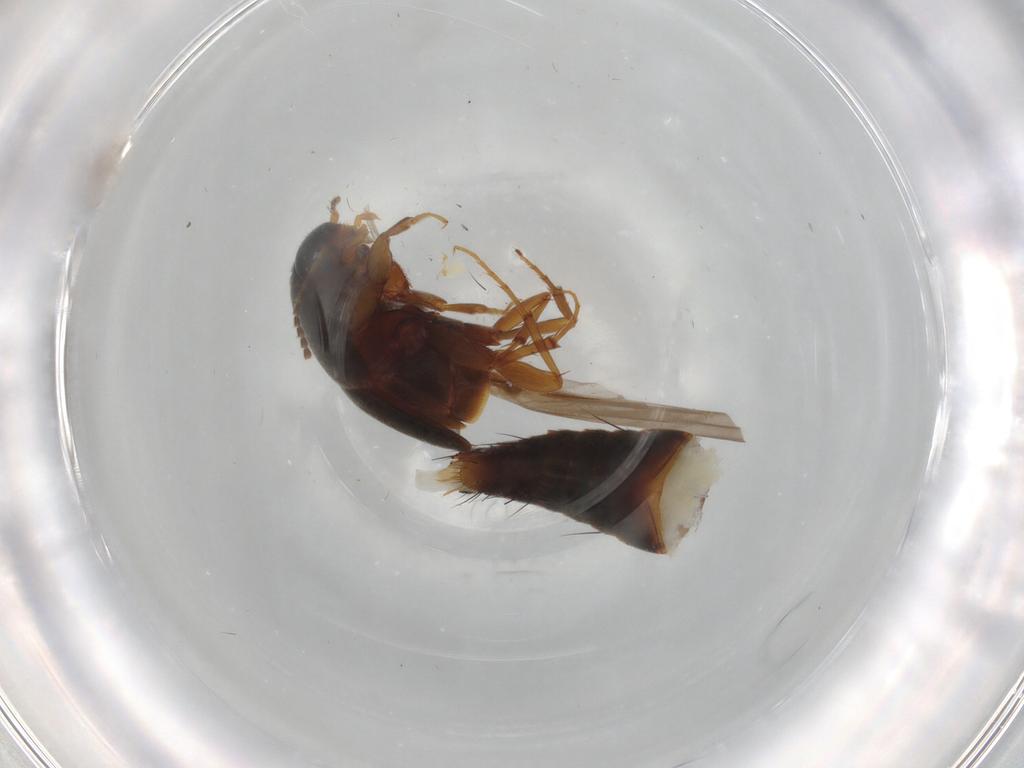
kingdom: Animalia
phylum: Arthropoda
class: Insecta
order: Coleoptera
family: Staphylinidae
